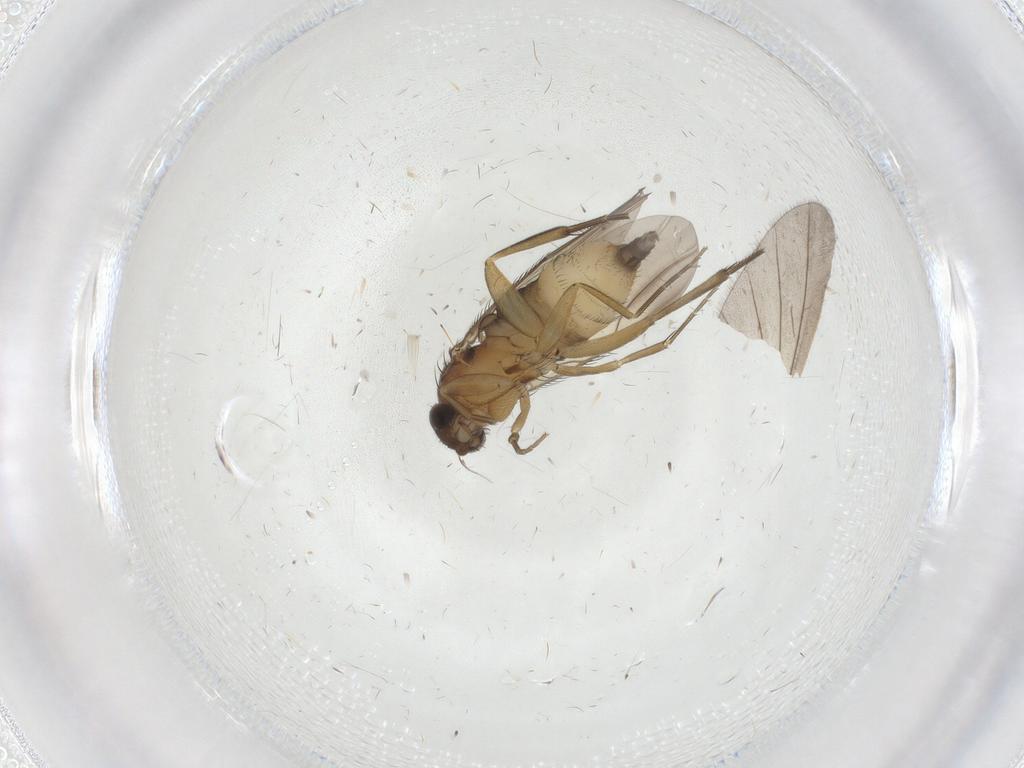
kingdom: Animalia
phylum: Arthropoda
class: Insecta
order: Diptera
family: Phoridae
